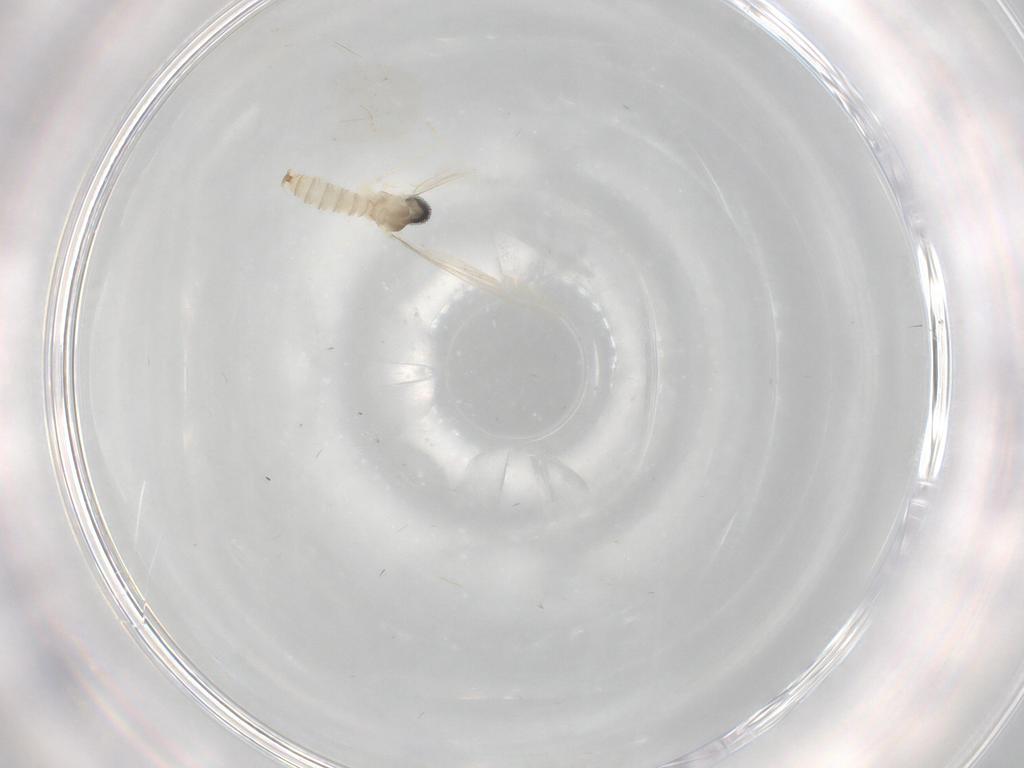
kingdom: Animalia
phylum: Arthropoda
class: Insecta
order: Diptera
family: Cecidomyiidae
